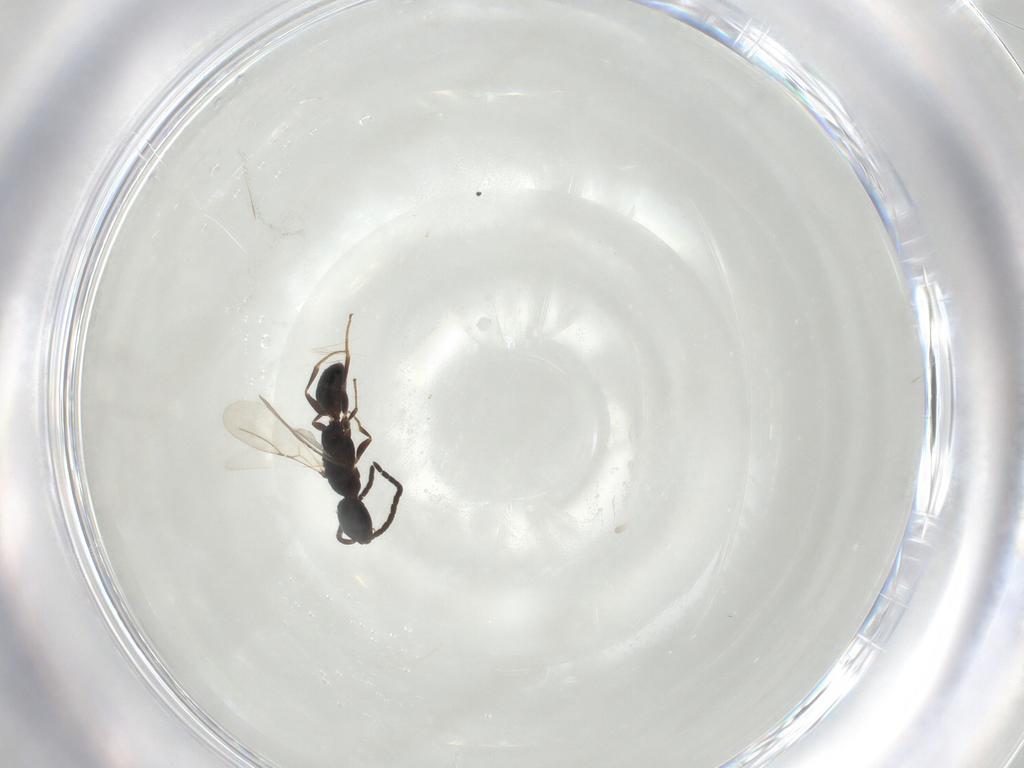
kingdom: Animalia
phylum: Arthropoda
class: Insecta
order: Hymenoptera
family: Bethylidae
